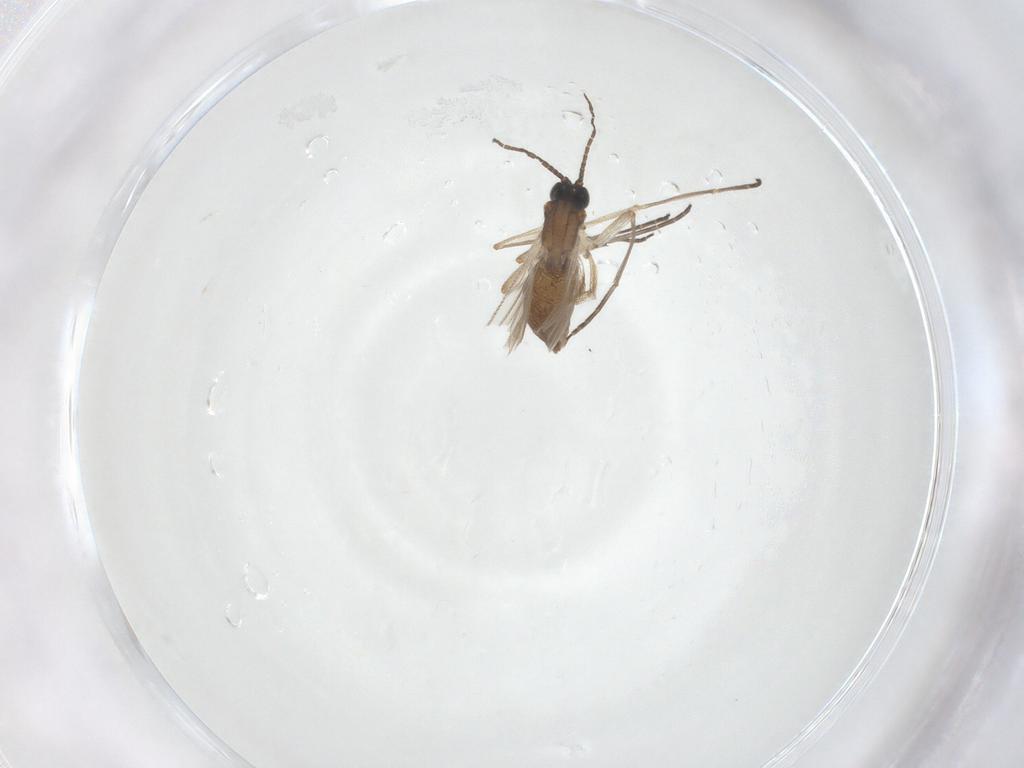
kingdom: Animalia
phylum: Arthropoda
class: Insecta
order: Diptera
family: Sciaridae
